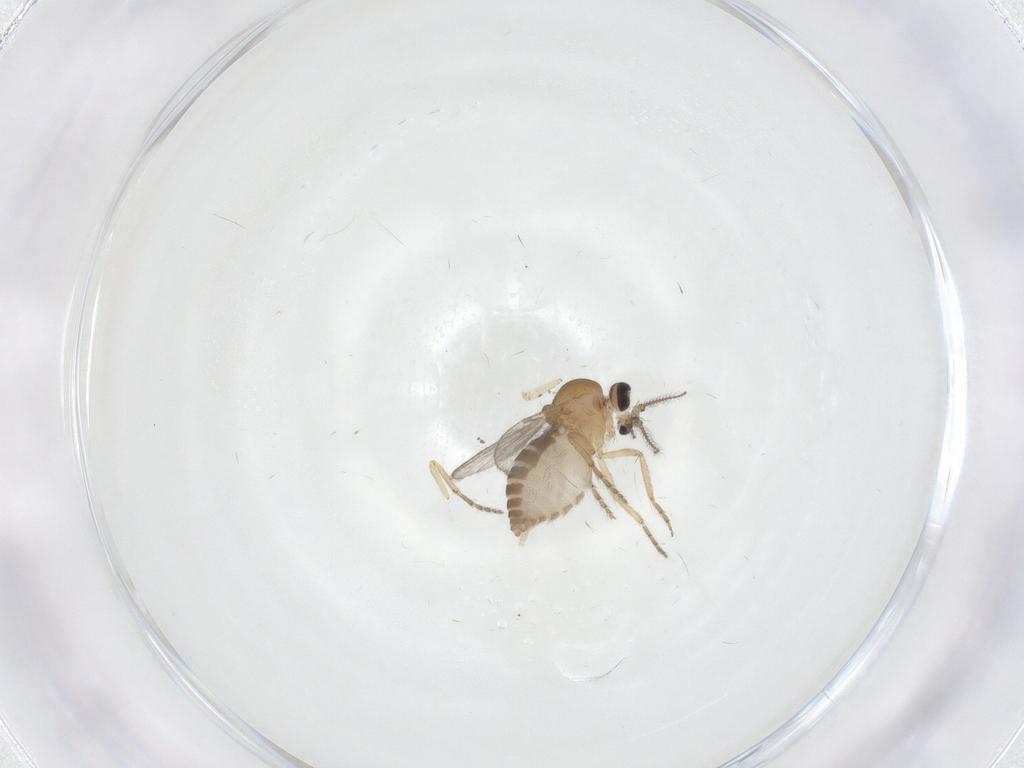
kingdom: Animalia
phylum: Arthropoda
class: Insecta
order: Diptera
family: Ceratopogonidae
